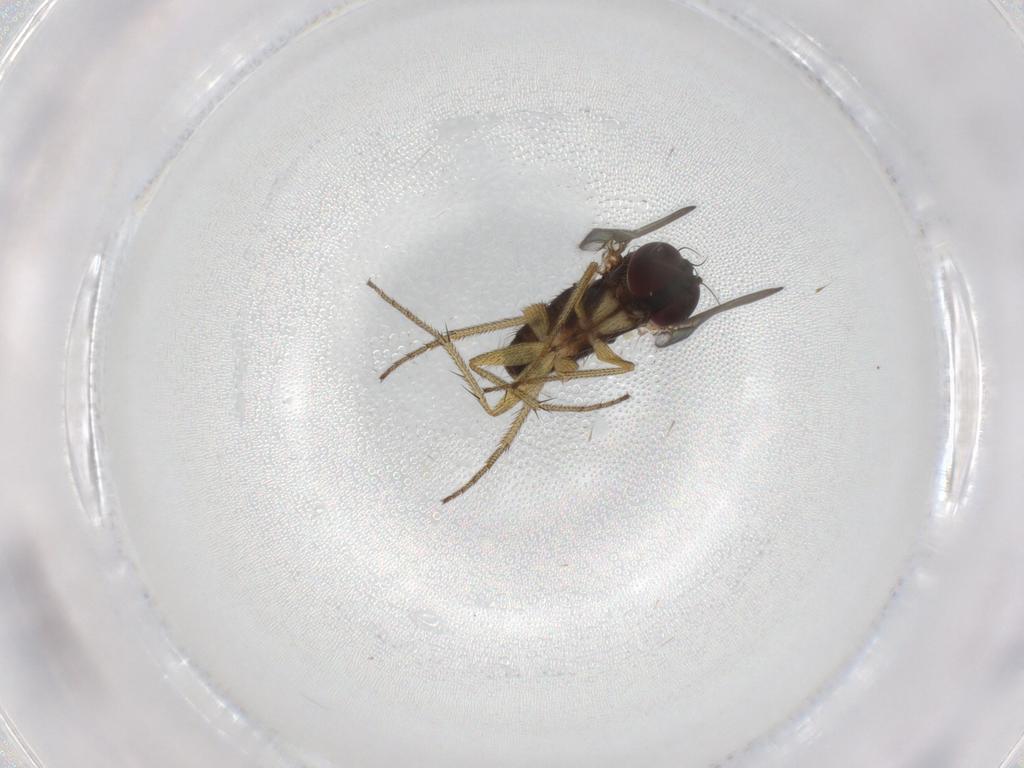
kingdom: Animalia
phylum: Arthropoda
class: Insecta
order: Diptera
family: Chironomidae
